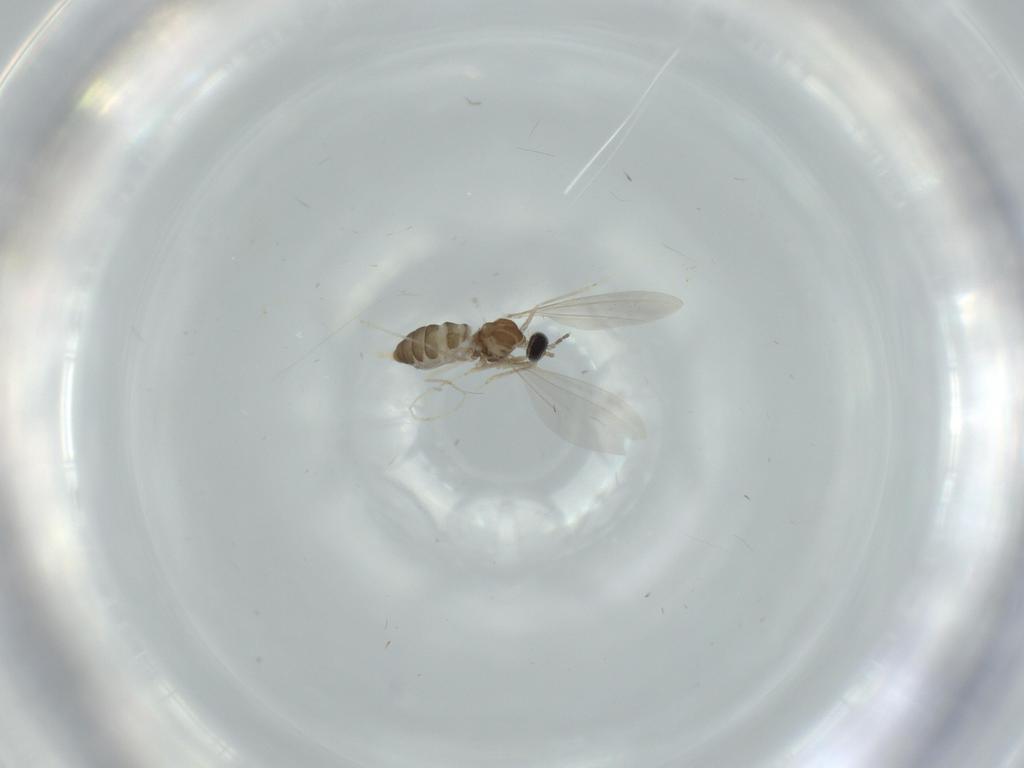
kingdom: Animalia
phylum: Arthropoda
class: Insecta
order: Diptera
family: Cecidomyiidae
